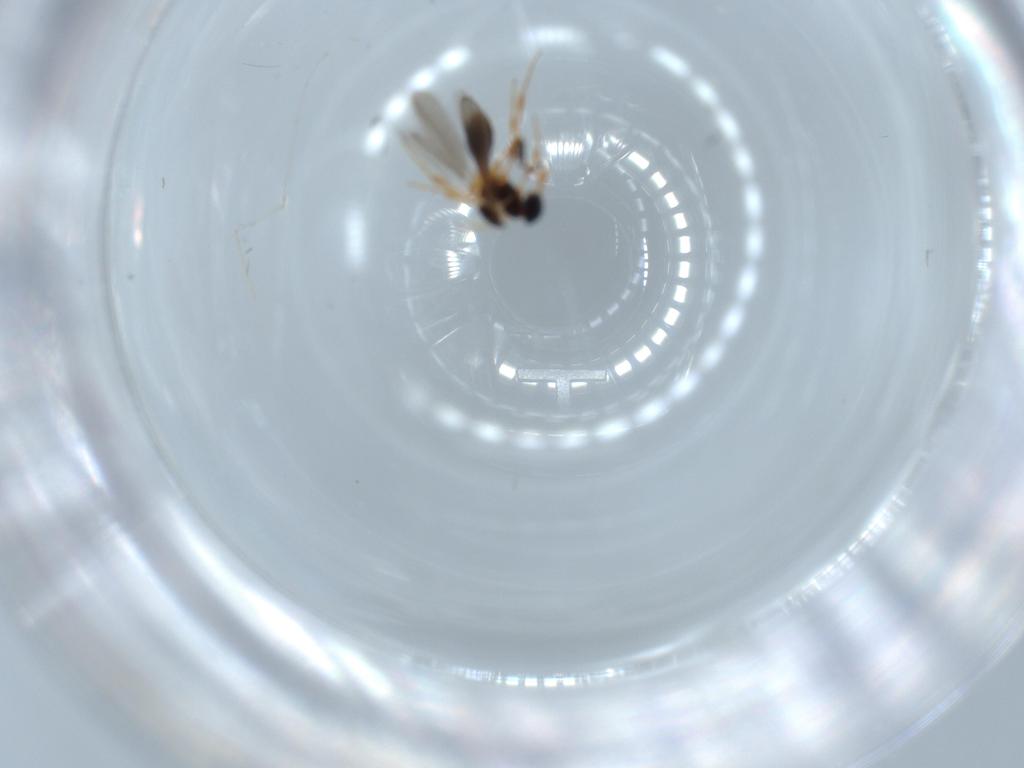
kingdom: Animalia
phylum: Arthropoda
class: Insecta
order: Hymenoptera
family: Platygastridae
